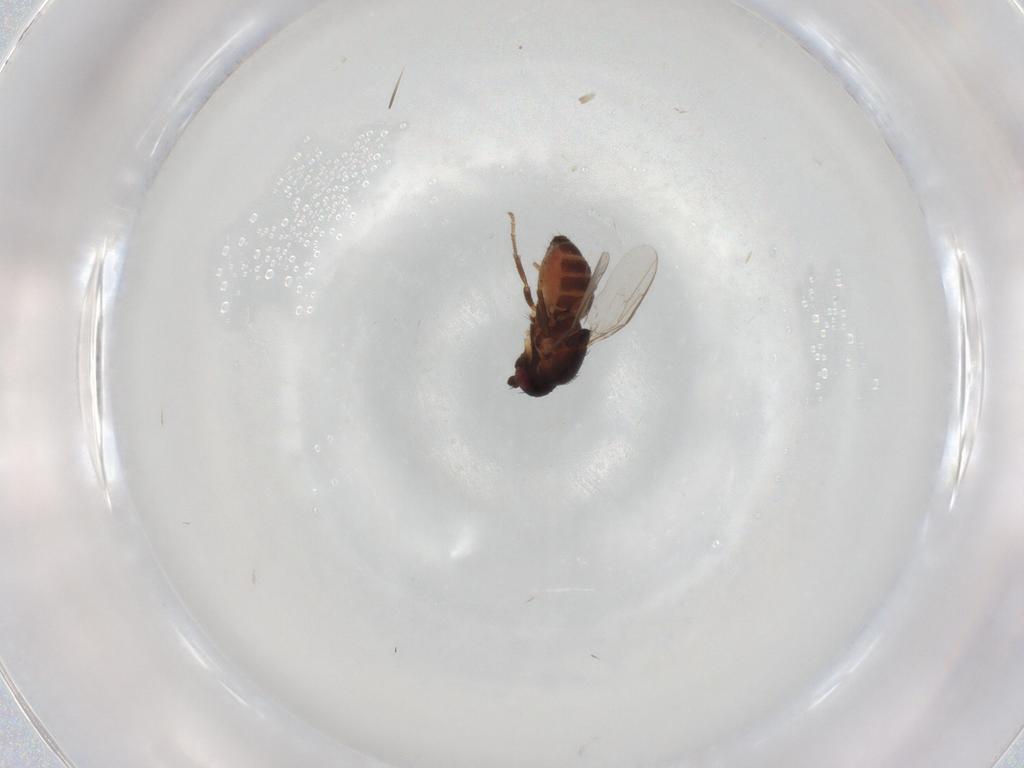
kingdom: Animalia
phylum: Arthropoda
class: Insecta
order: Diptera
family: Sphaeroceridae
